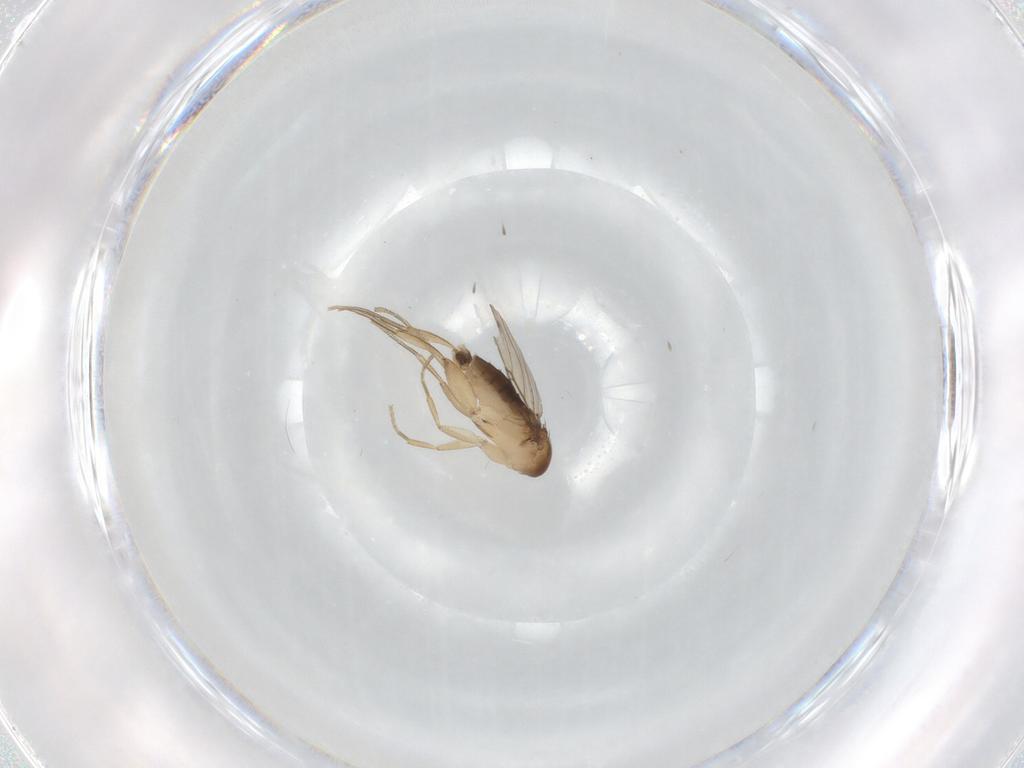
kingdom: Animalia
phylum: Arthropoda
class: Insecta
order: Diptera
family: Phoridae
